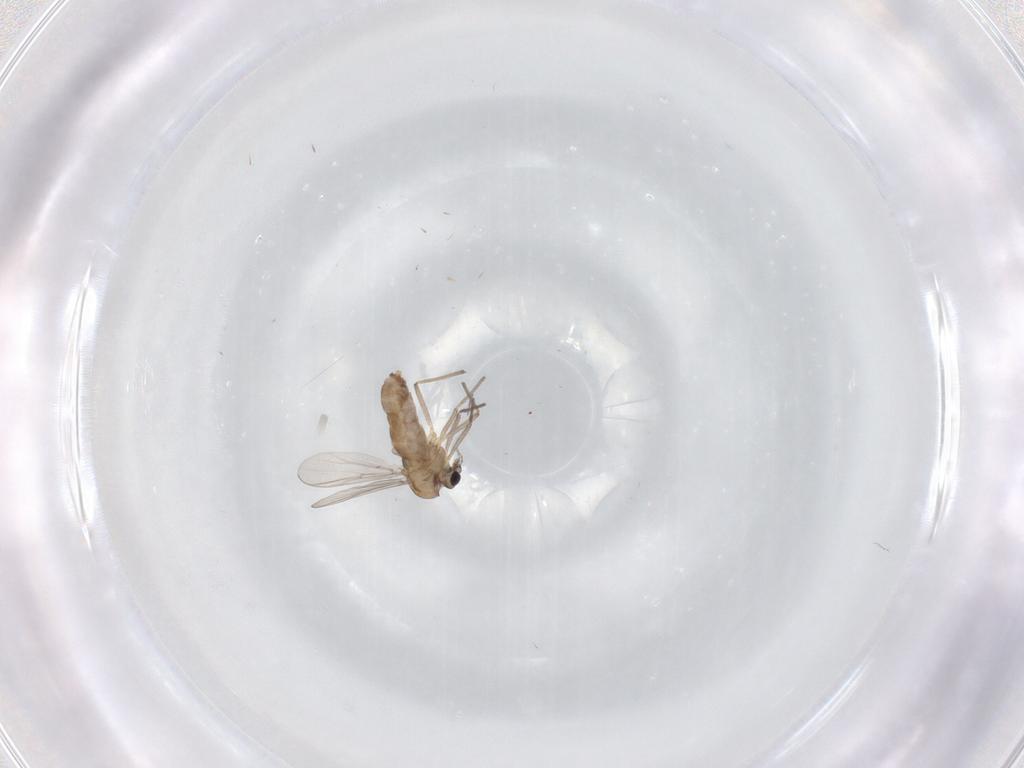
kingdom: Animalia
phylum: Arthropoda
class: Insecta
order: Diptera
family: Chironomidae
